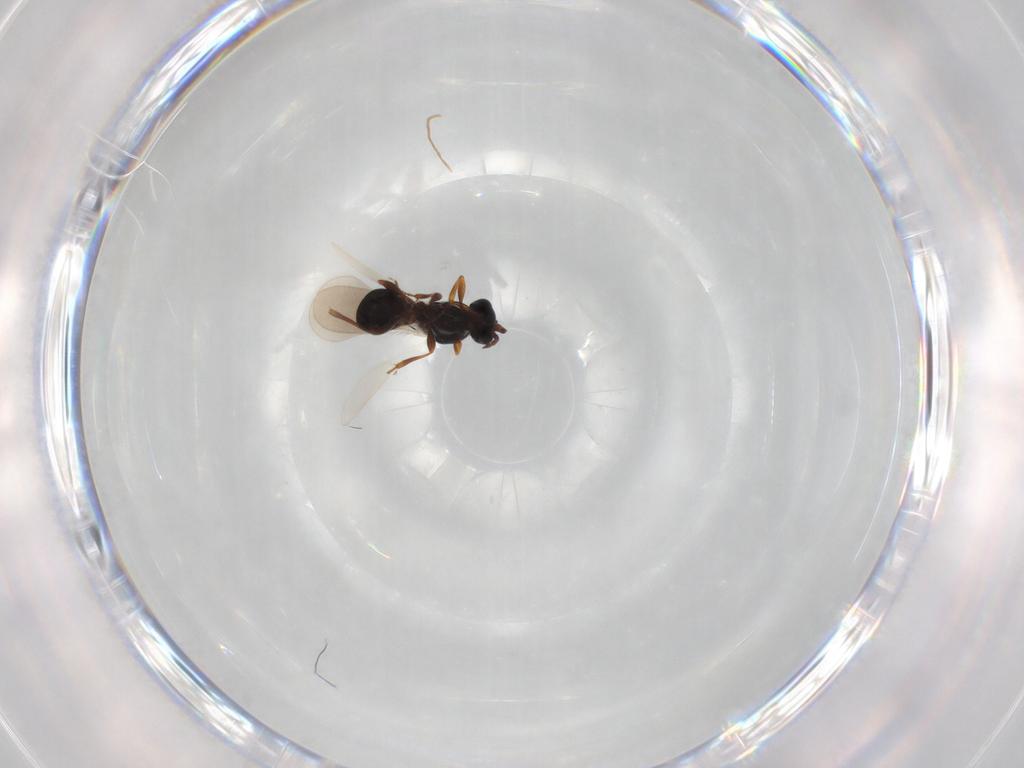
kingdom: Animalia
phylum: Arthropoda
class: Insecta
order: Hymenoptera
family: Platygastridae
